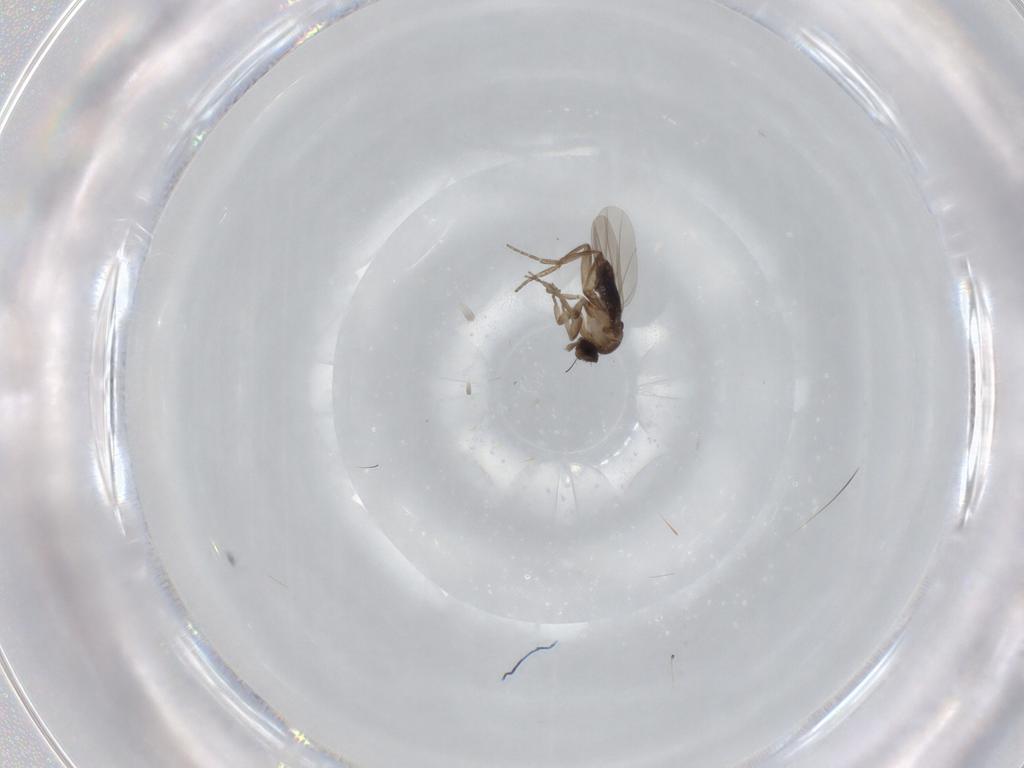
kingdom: Animalia
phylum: Arthropoda
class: Insecta
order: Diptera
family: Phoridae
